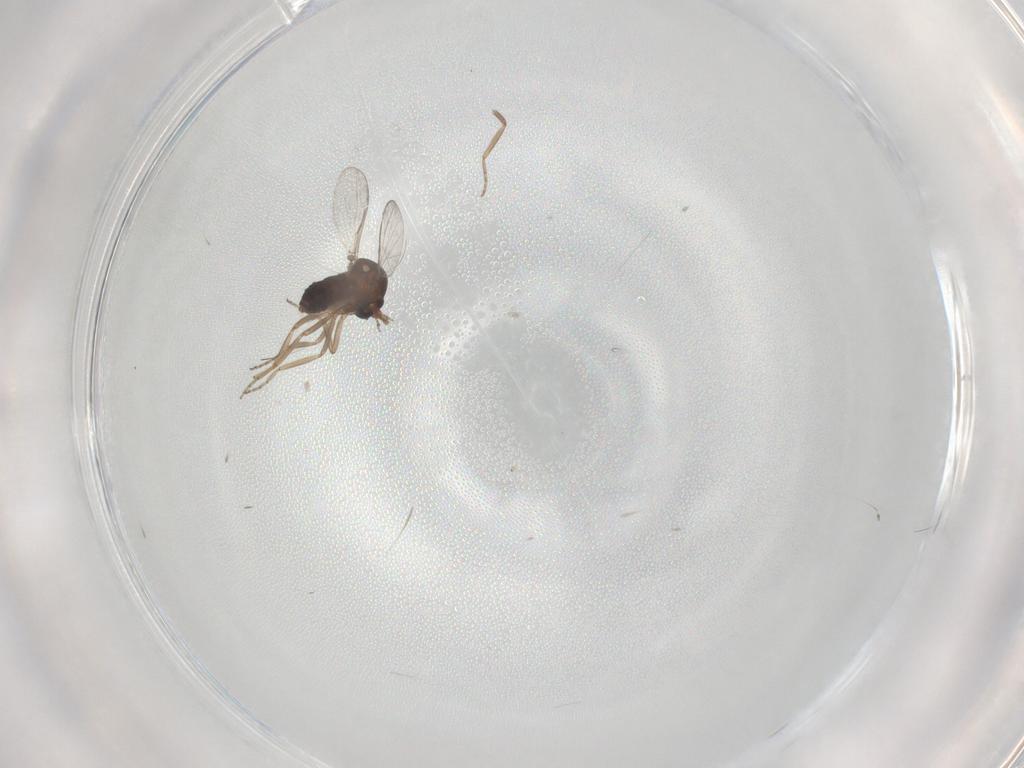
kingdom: Animalia
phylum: Arthropoda
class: Insecta
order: Diptera
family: Ceratopogonidae
